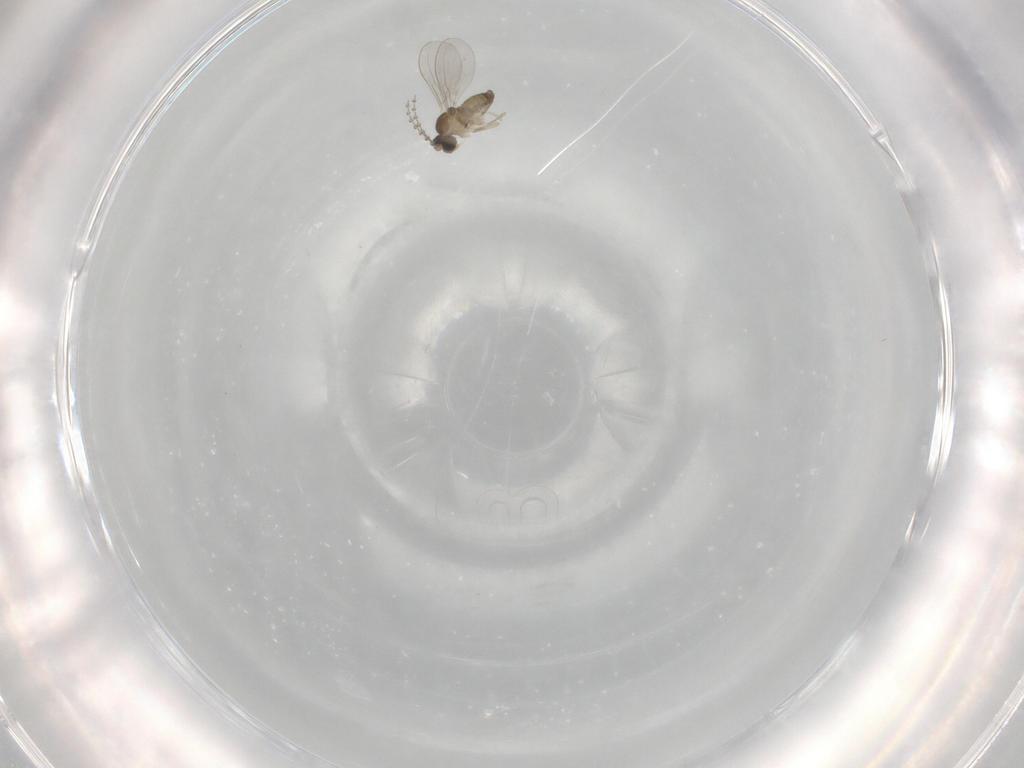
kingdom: Animalia
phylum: Arthropoda
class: Insecta
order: Diptera
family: Cecidomyiidae
